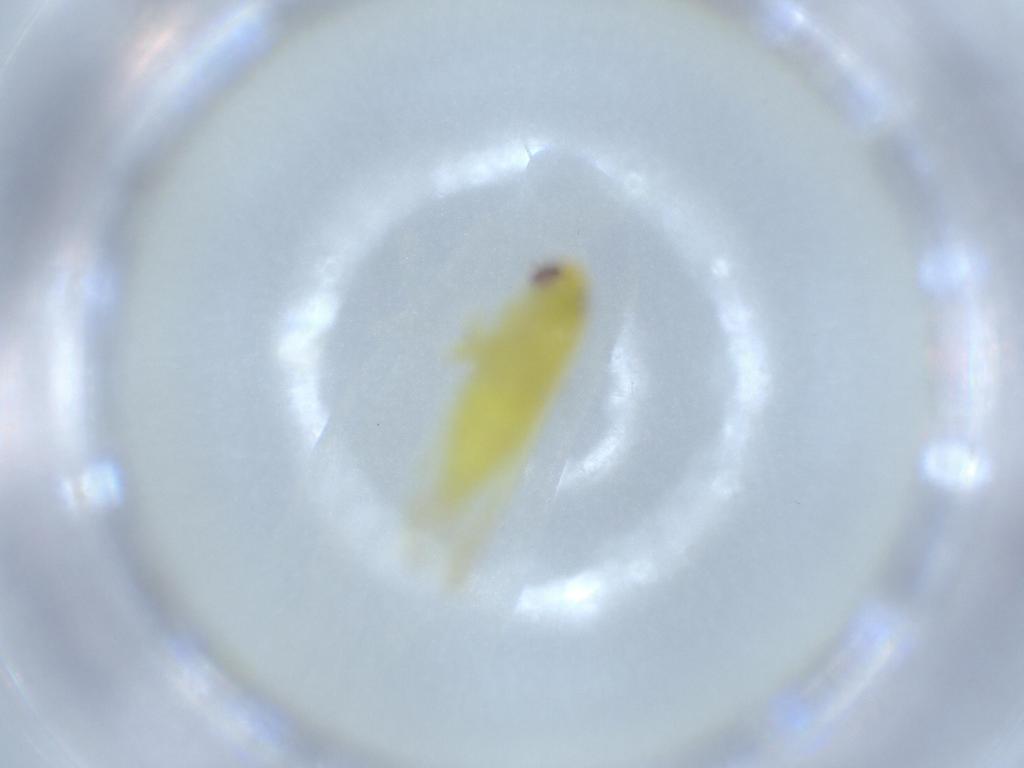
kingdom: Animalia
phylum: Arthropoda
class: Insecta
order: Hemiptera
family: Cicadellidae
